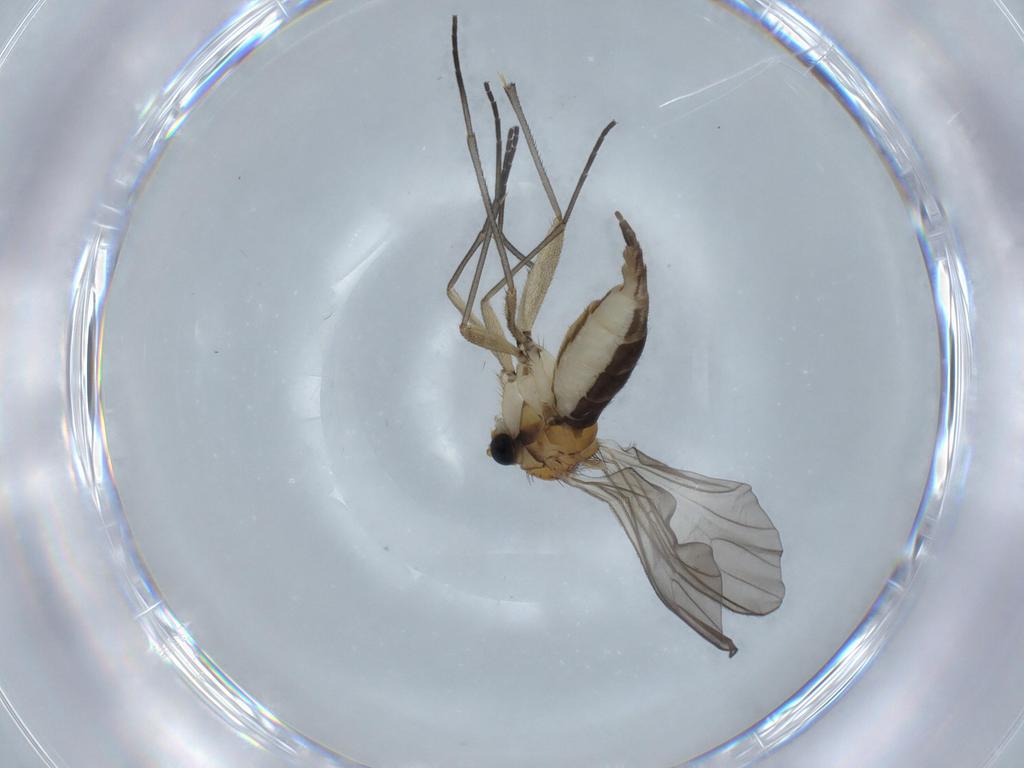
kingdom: Animalia
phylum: Arthropoda
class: Insecta
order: Diptera
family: Sciaridae
